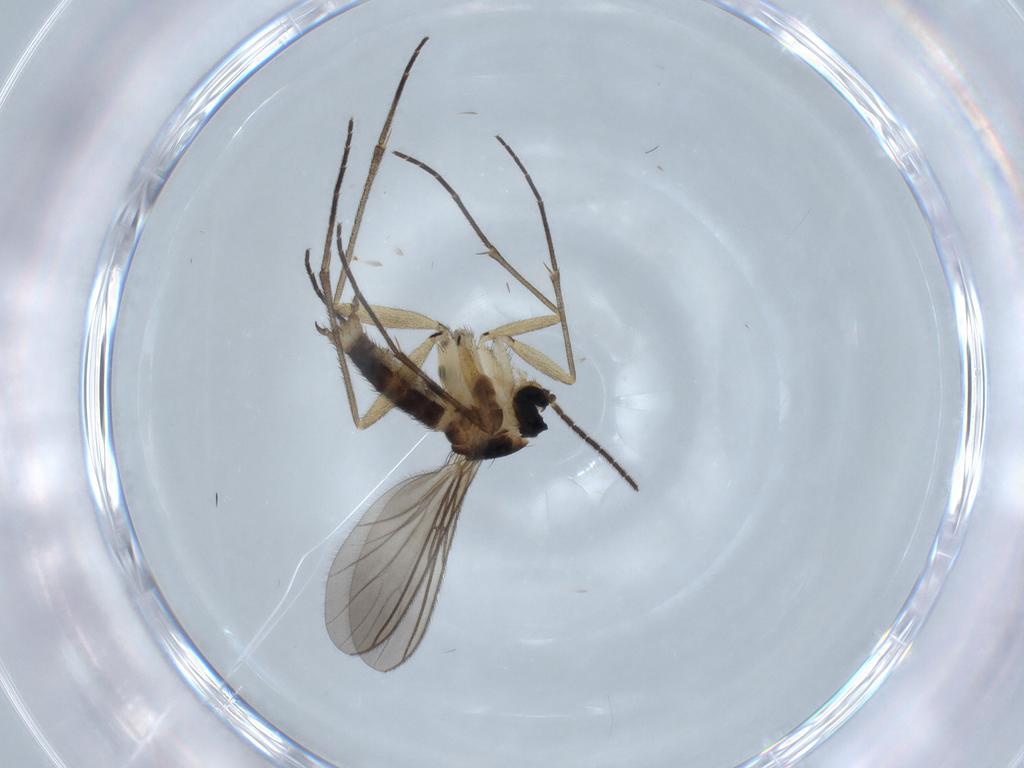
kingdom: Animalia
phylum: Arthropoda
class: Insecta
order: Diptera
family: Sciaridae
